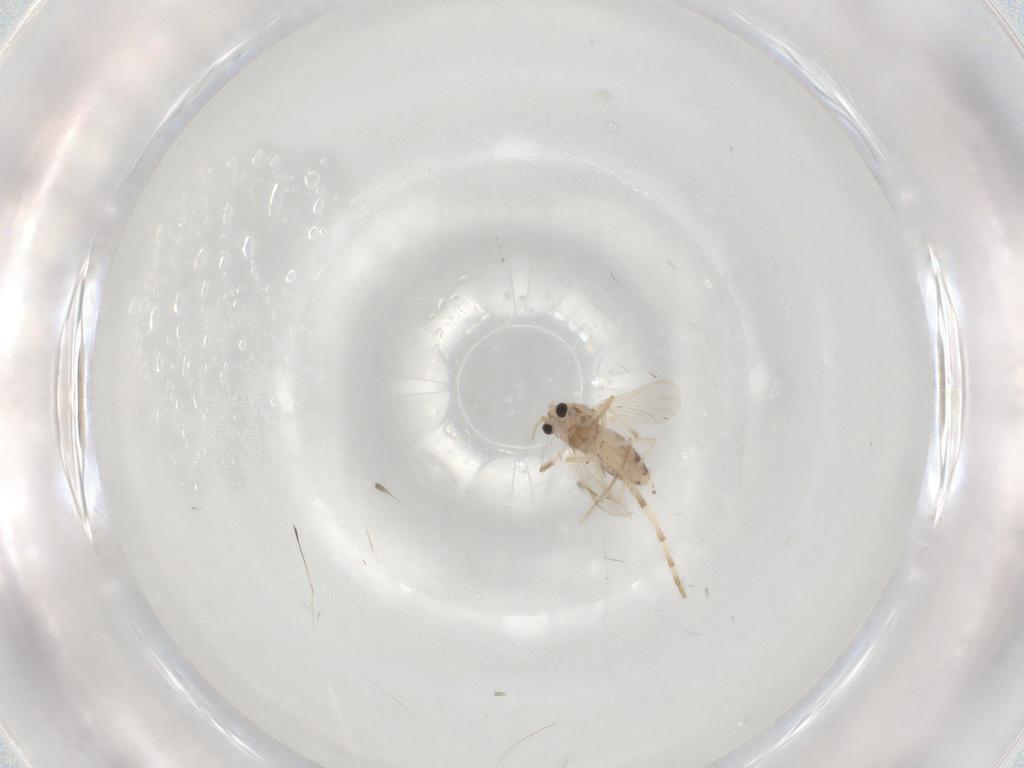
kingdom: Animalia
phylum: Arthropoda
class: Insecta
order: Diptera
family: Chironomidae
